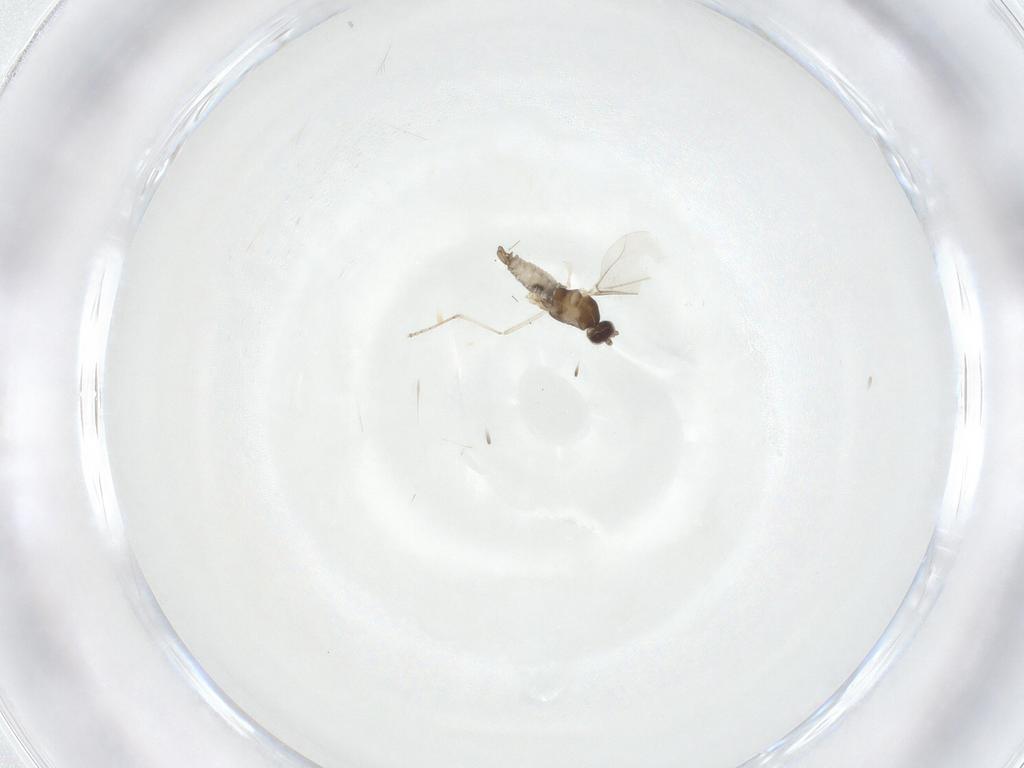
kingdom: Animalia
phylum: Arthropoda
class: Insecta
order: Diptera
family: Cecidomyiidae
